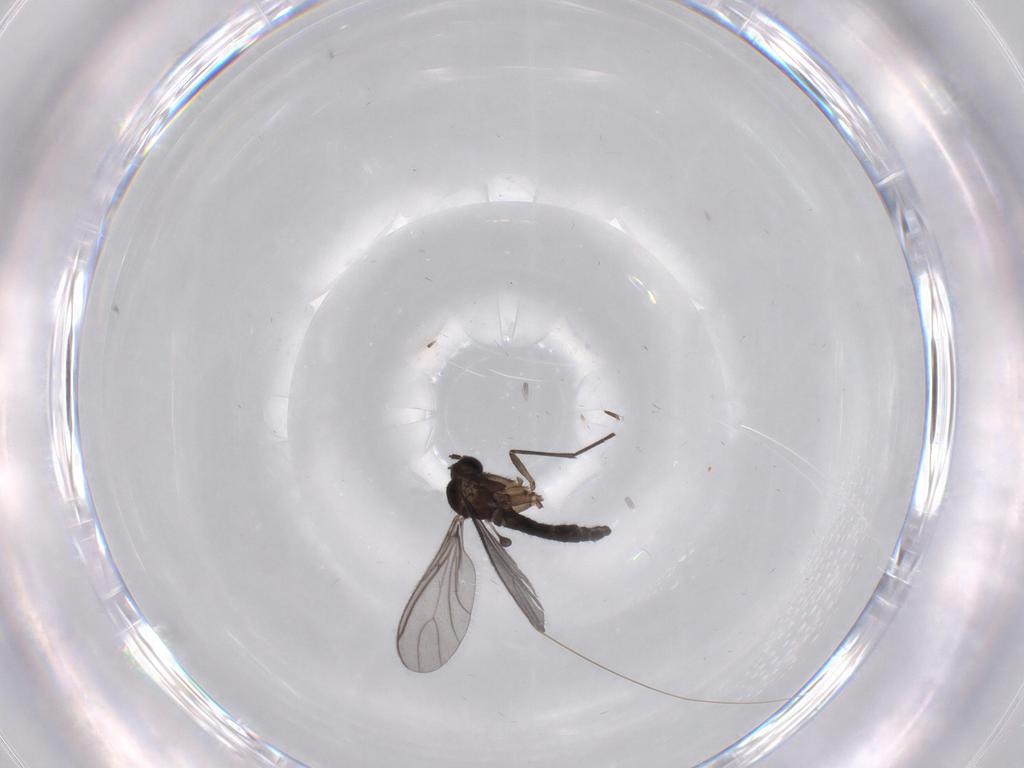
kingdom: Animalia
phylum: Arthropoda
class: Insecta
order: Diptera
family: Sciaridae
